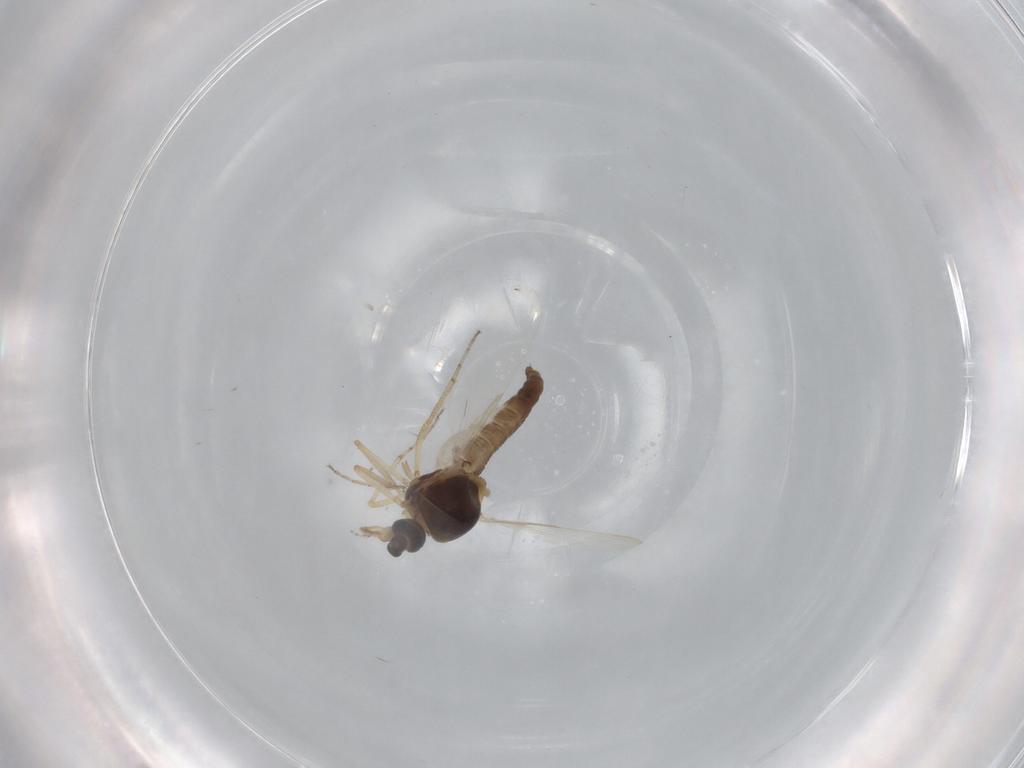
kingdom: Animalia
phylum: Arthropoda
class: Insecta
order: Diptera
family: Ceratopogonidae
